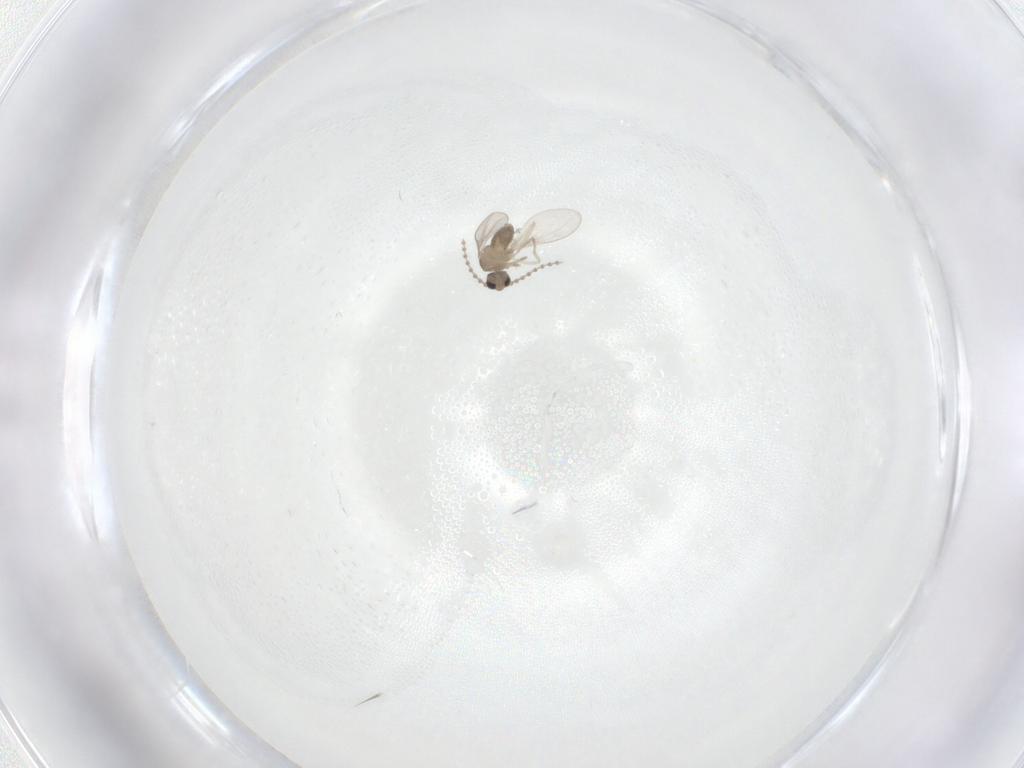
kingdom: Animalia
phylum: Arthropoda
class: Insecta
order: Diptera
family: Cecidomyiidae
